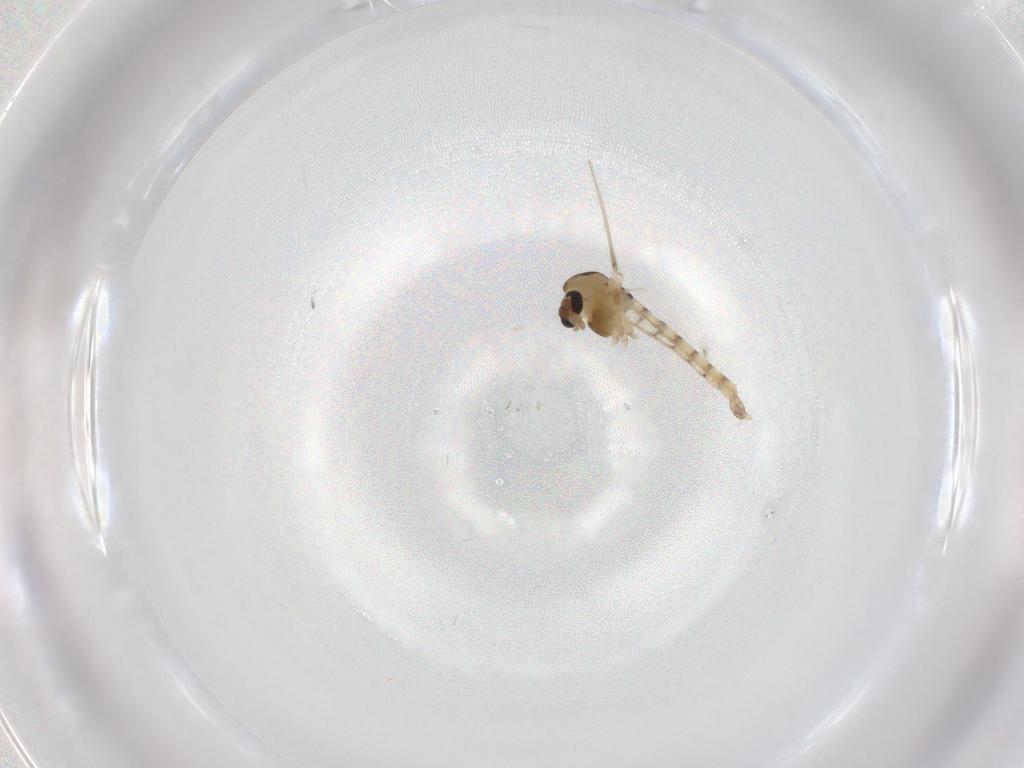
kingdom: Animalia
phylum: Arthropoda
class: Insecta
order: Diptera
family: Chironomidae
